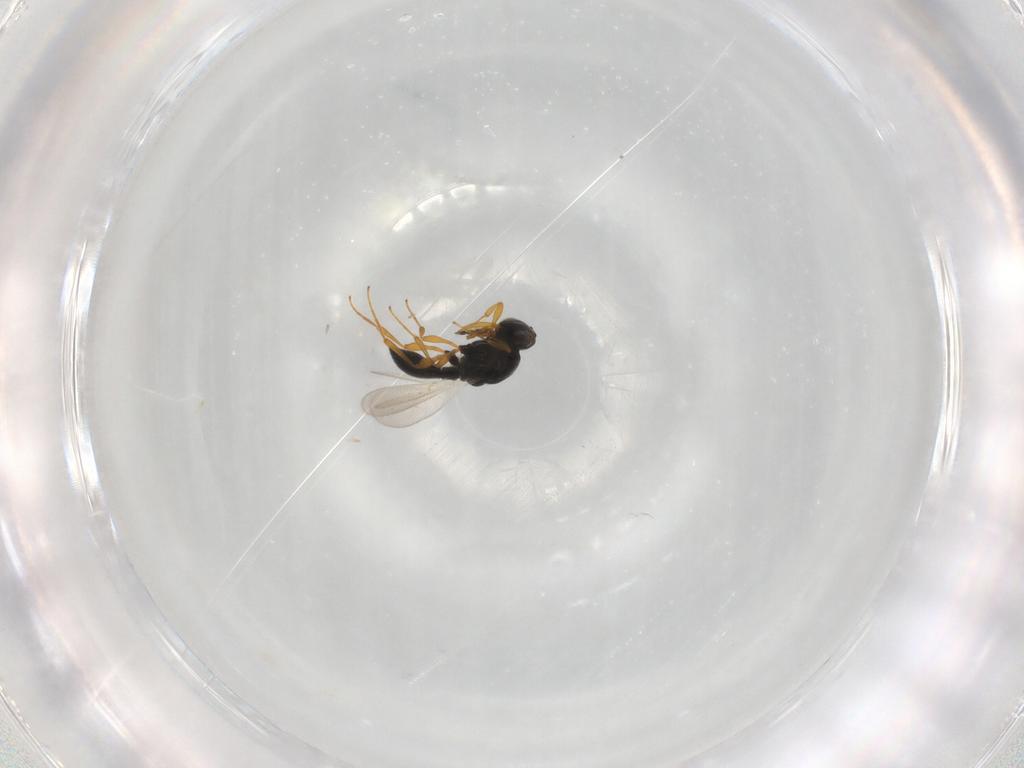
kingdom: Animalia
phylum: Arthropoda
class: Insecta
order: Hymenoptera
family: Platygastridae
